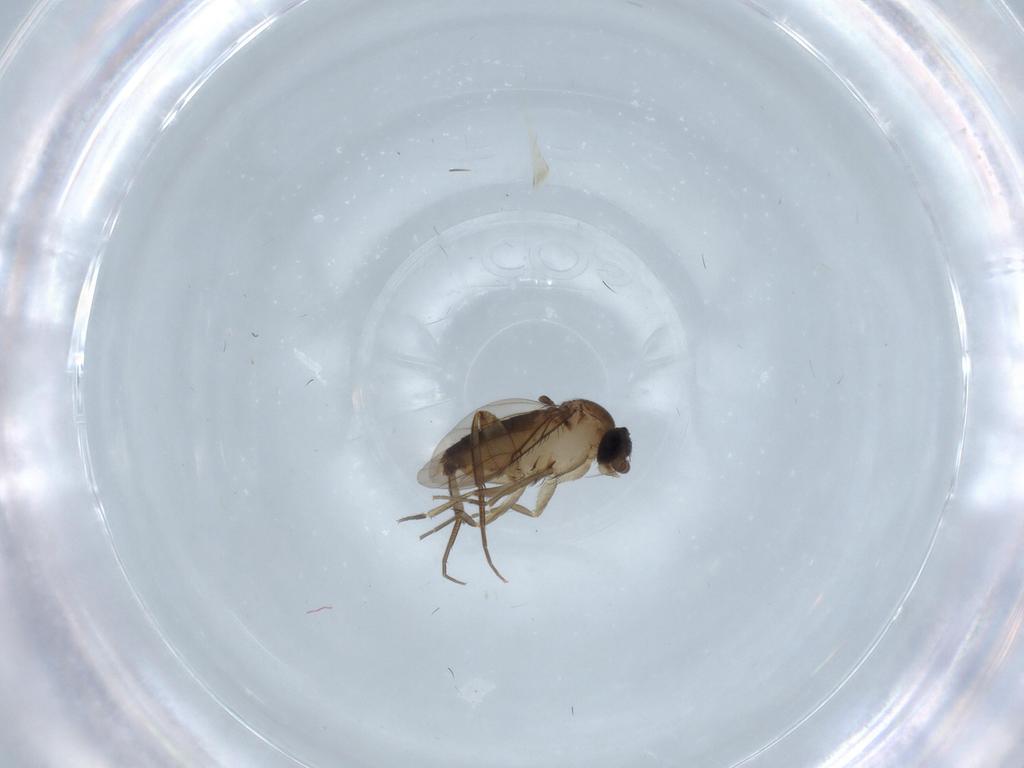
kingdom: Animalia
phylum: Arthropoda
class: Insecta
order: Diptera
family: Phoridae
